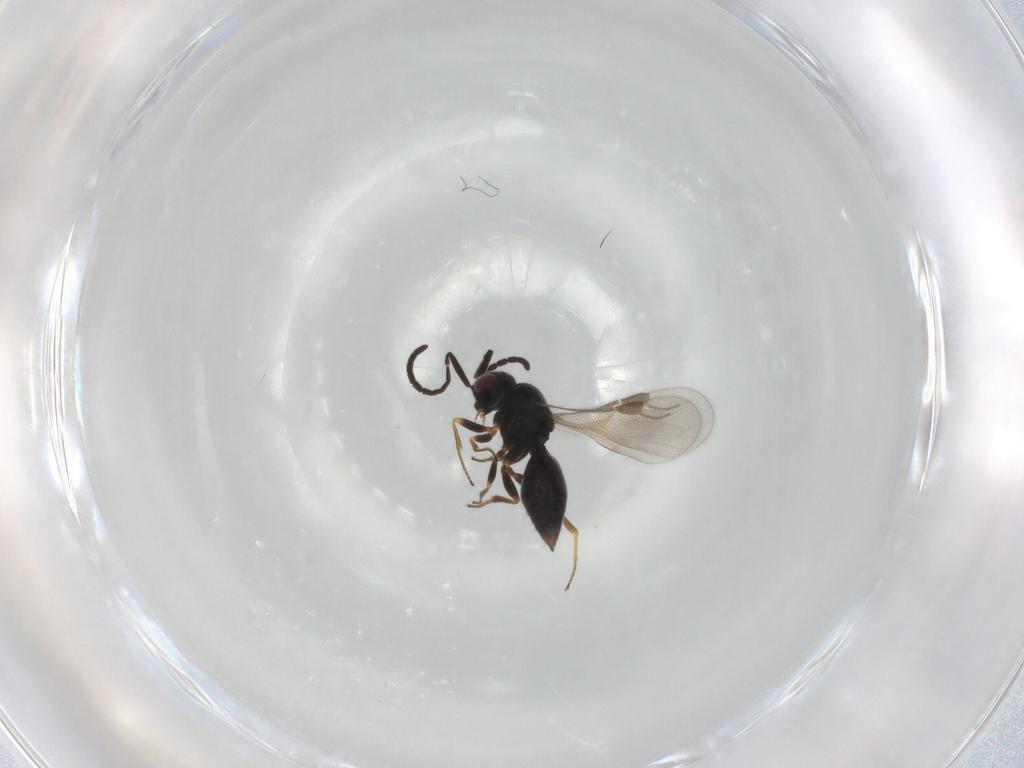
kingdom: Animalia
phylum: Arthropoda
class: Insecta
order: Hymenoptera
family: Megaspilidae
